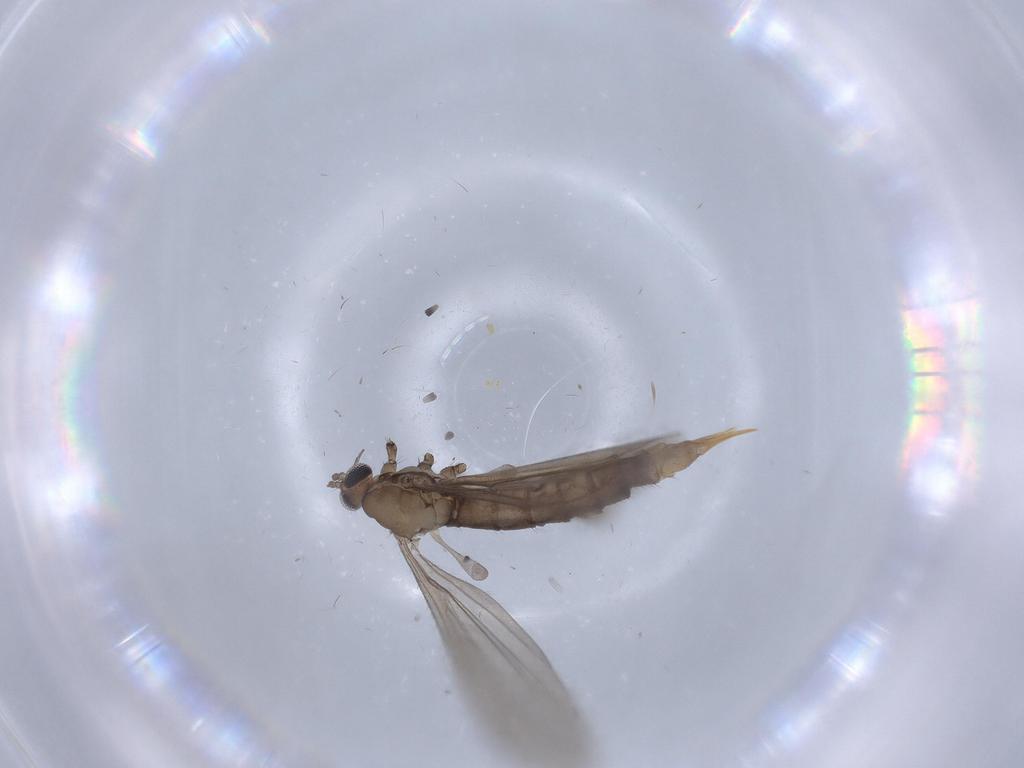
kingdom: Animalia
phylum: Arthropoda
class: Insecta
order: Diptera
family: Limoniidae
